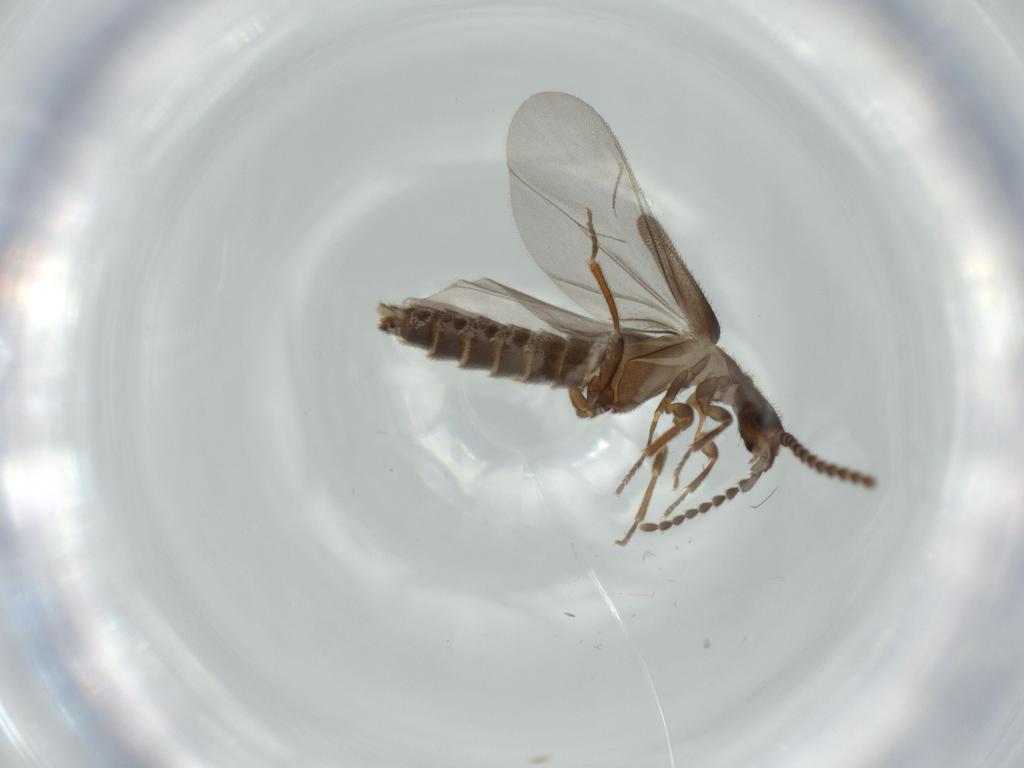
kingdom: Animalia
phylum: Arthropoda
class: Insecta
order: Coleoptera
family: Omethidae
